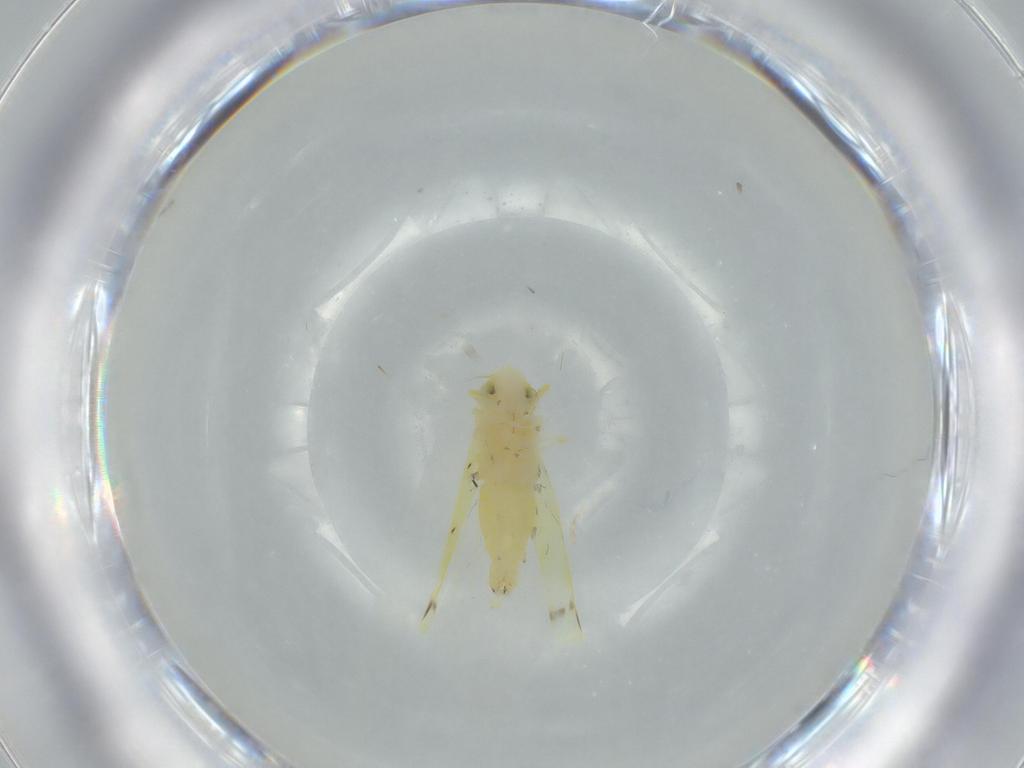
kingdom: Animalia
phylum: Arthropoda
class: Insecta
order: Hemiptera
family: Cicadellidae
